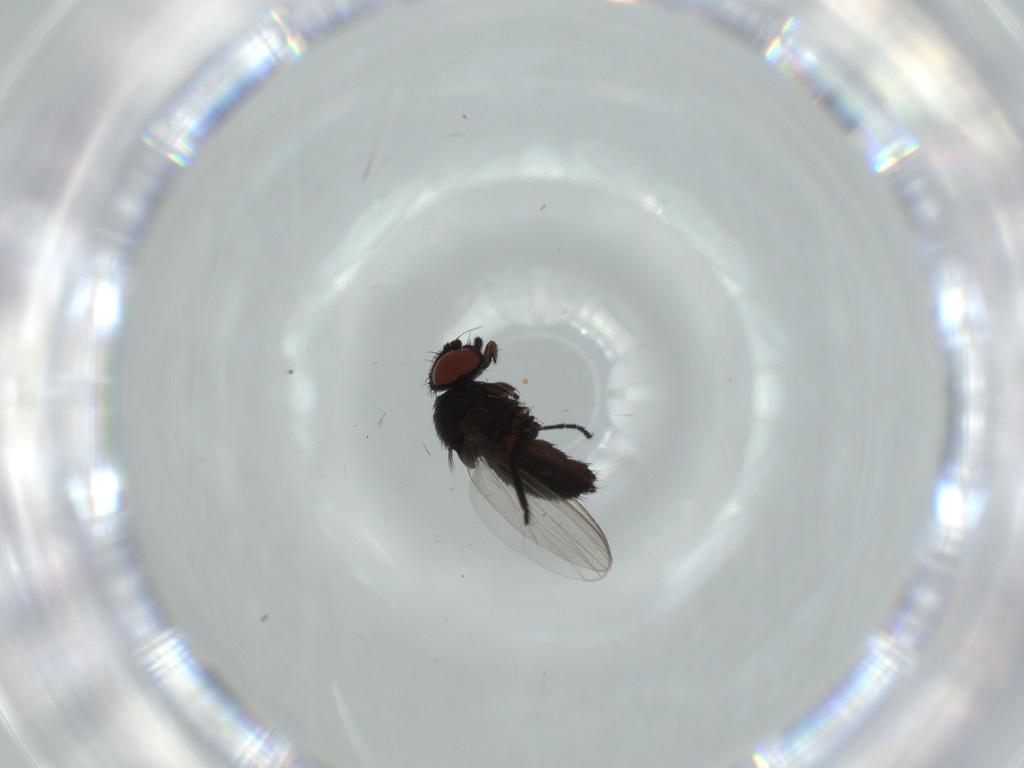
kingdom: Animalia
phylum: Arthropoda
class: Insecta
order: Diptera
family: Milichiidae
